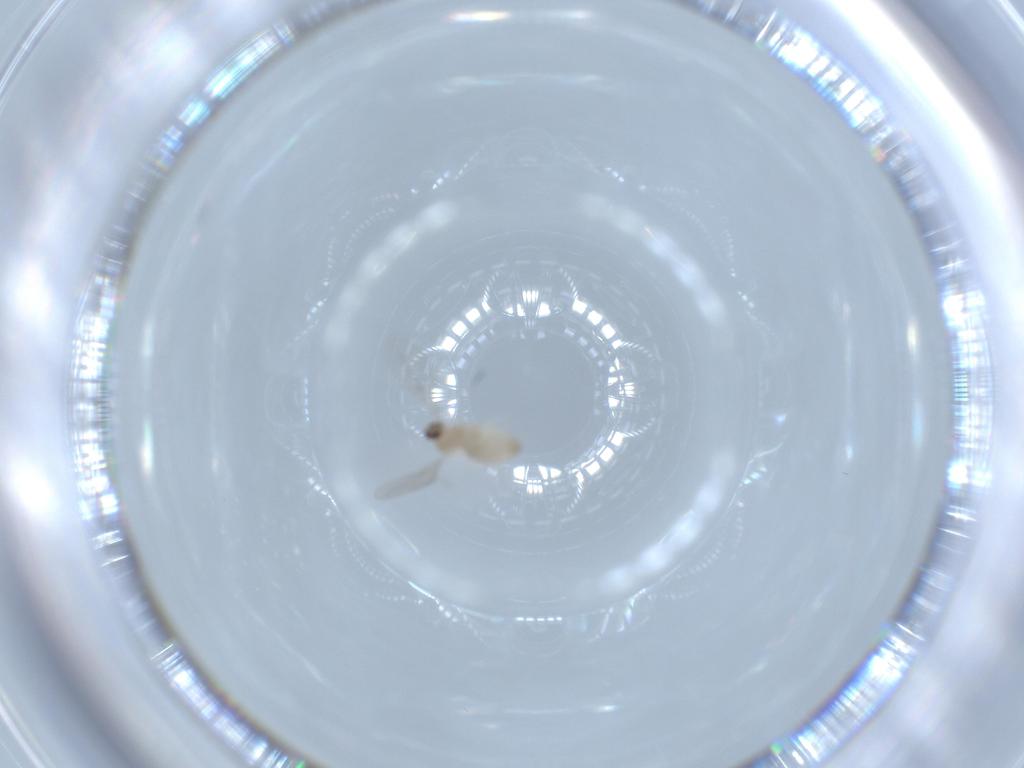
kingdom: Animalia
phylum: Arthropoda
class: Insecta
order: Diptera
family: Cecidomyiidae
